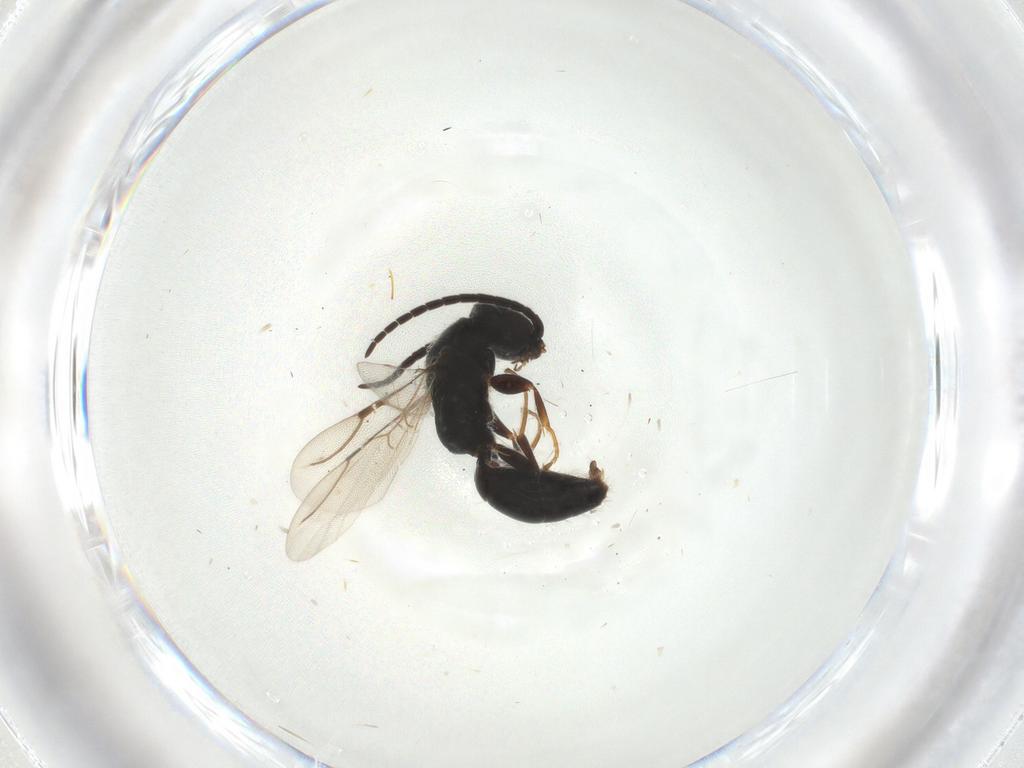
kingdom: Animalia
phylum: Arthropoda
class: Insecta
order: Hymenoptera
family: Bethylidae
